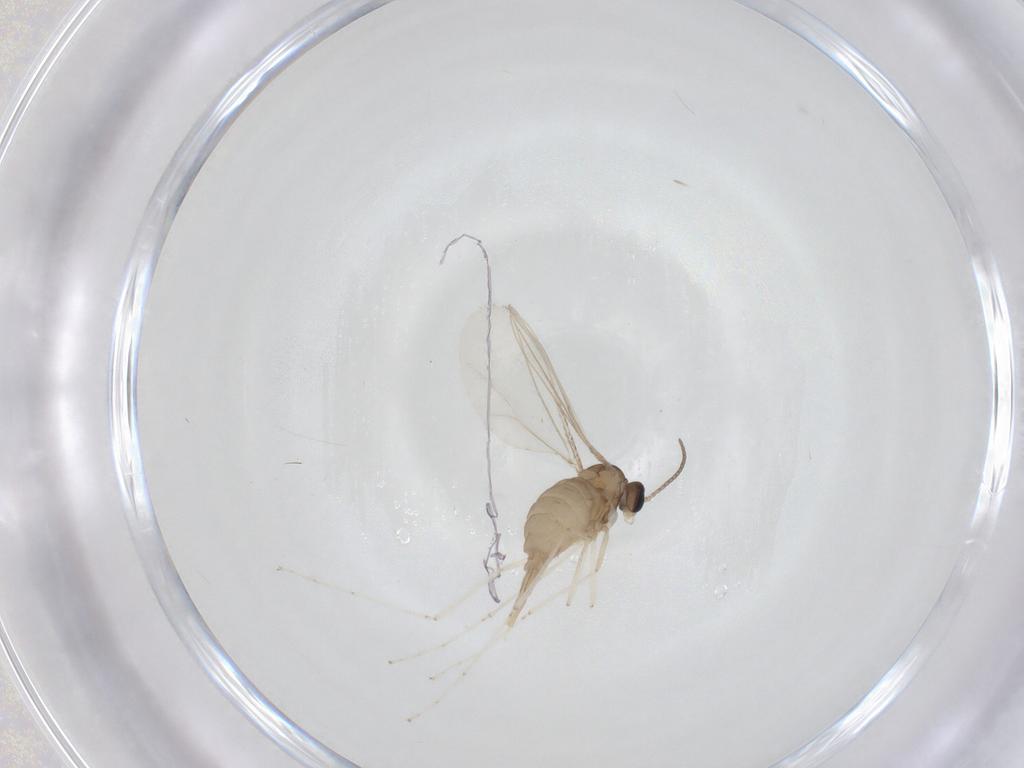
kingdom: Animalia
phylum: Arthropoda
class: Insecta
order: Diptera
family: Cecidomyiidae
